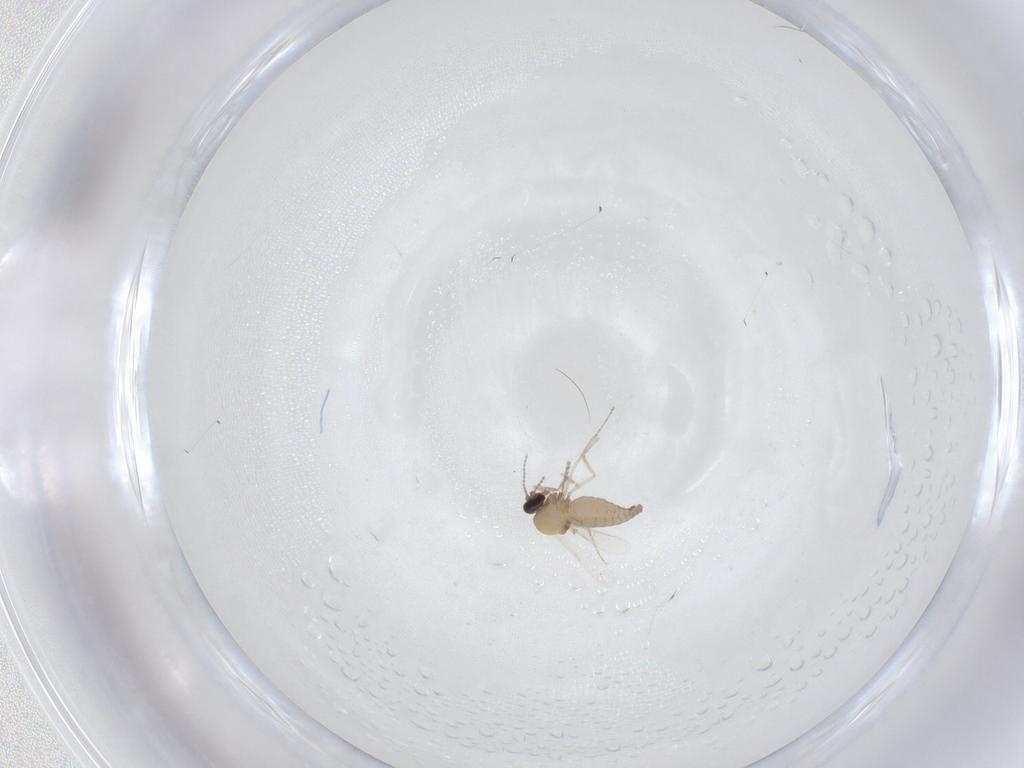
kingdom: Animalia
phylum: Arthropoda
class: Insecta
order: Diptera
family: Ceratopogonidae
